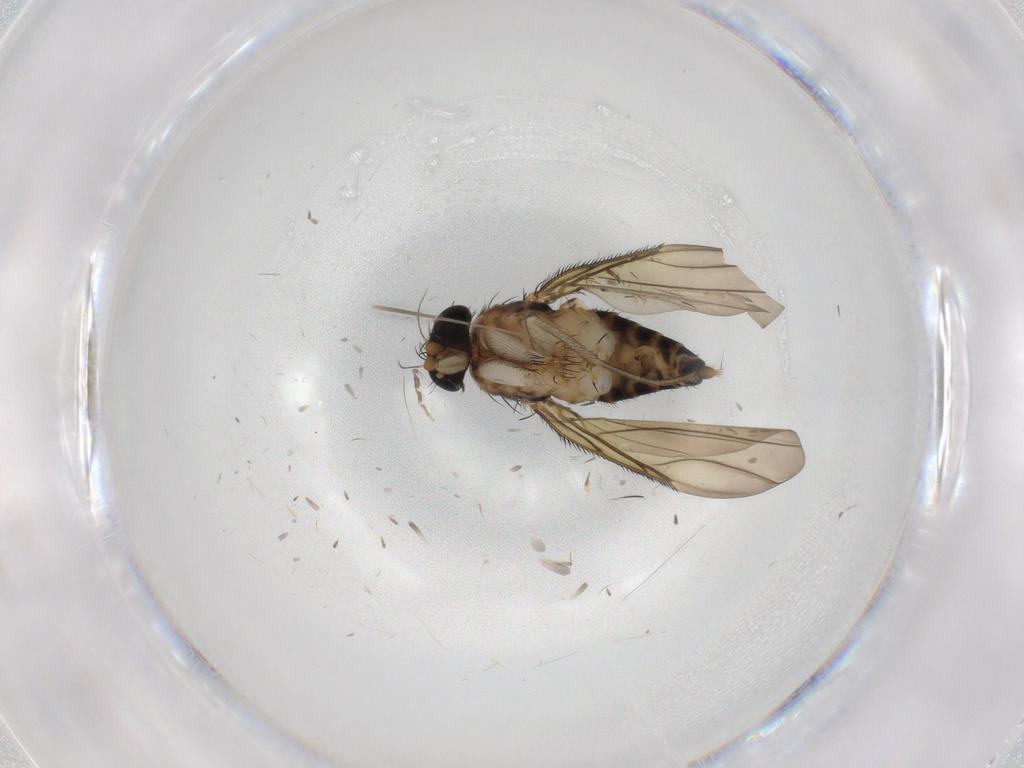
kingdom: Animalia
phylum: Arthropoda
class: Insecta
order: Diptera
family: Phoridae
